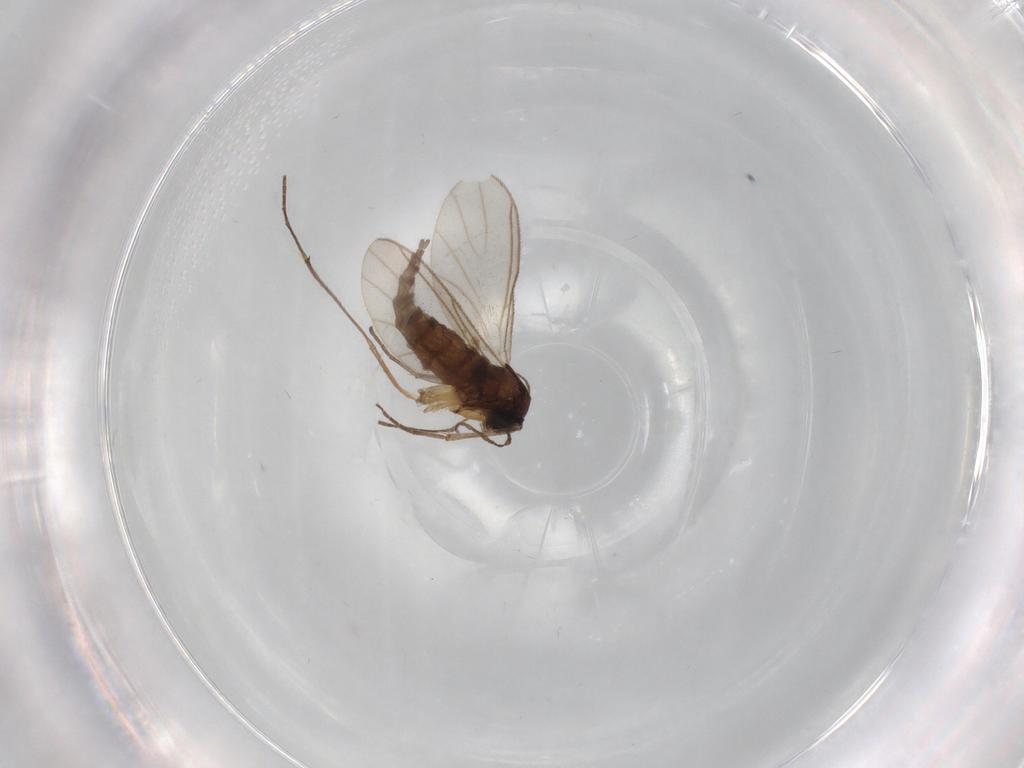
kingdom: Animalia
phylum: Arthropoda
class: Insecta
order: Diptera
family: Sciaridae
